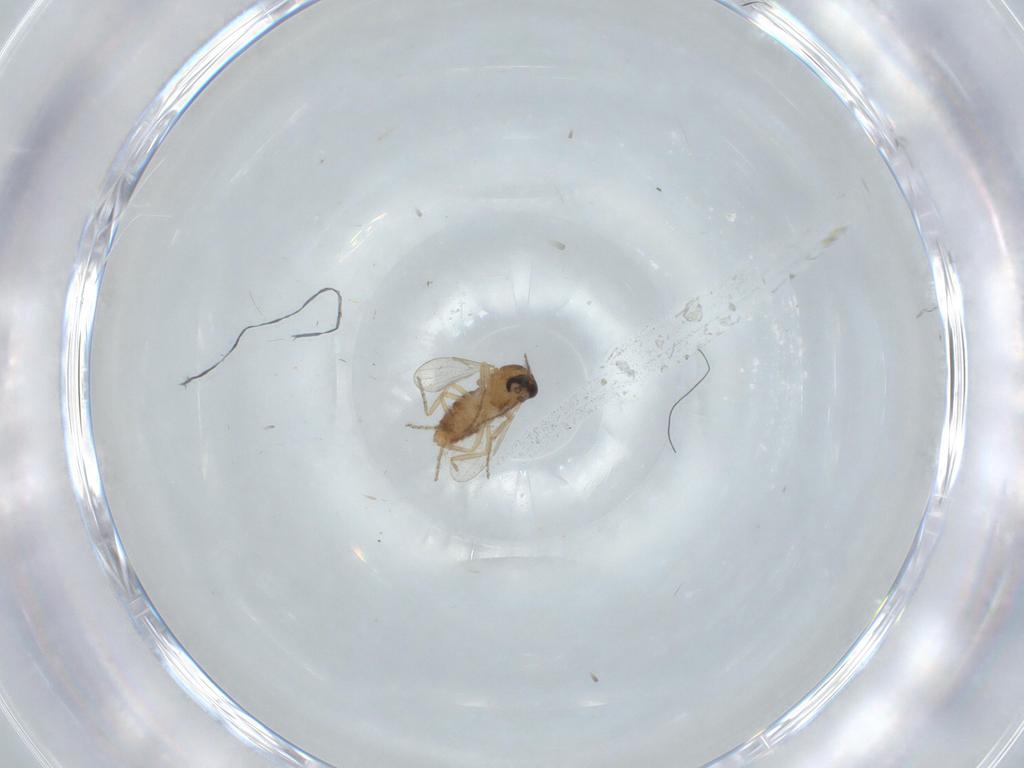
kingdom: Animalia
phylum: Arthropoda
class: Insecta
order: Diptera
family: Ceratopogonidae
